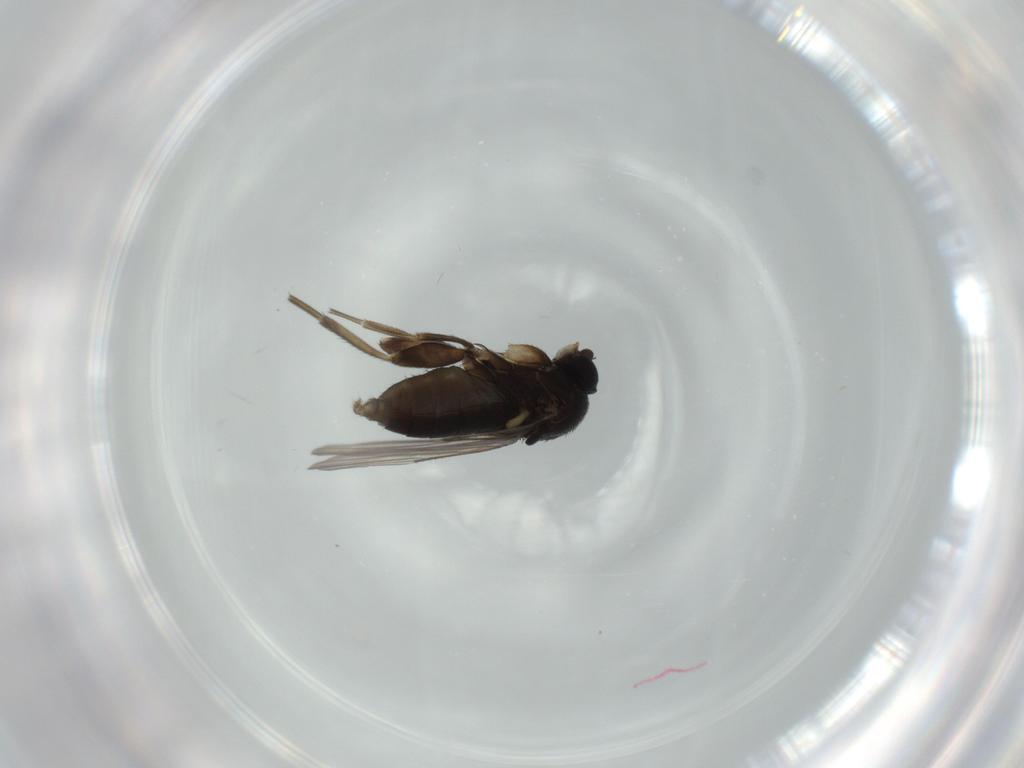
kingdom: Animalia
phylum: Arthropoda
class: Insecta
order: Diptera
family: Phoridae
